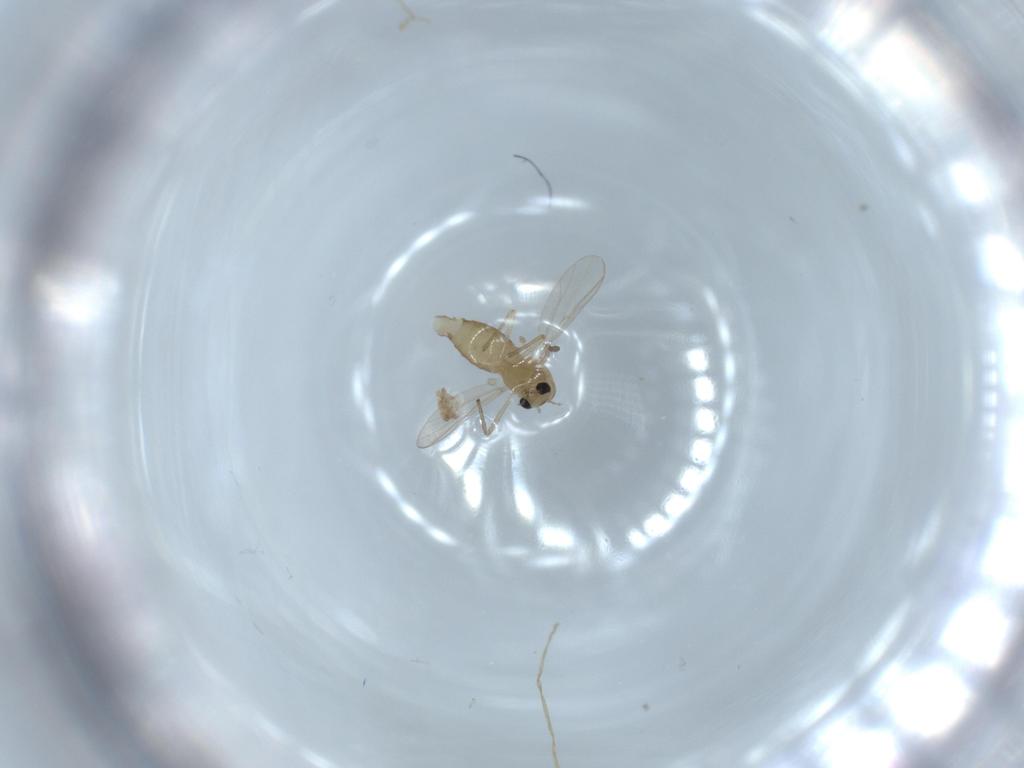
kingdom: Animalia
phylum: Arthropoda
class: Insecta
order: Diptera
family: Chironomidae
